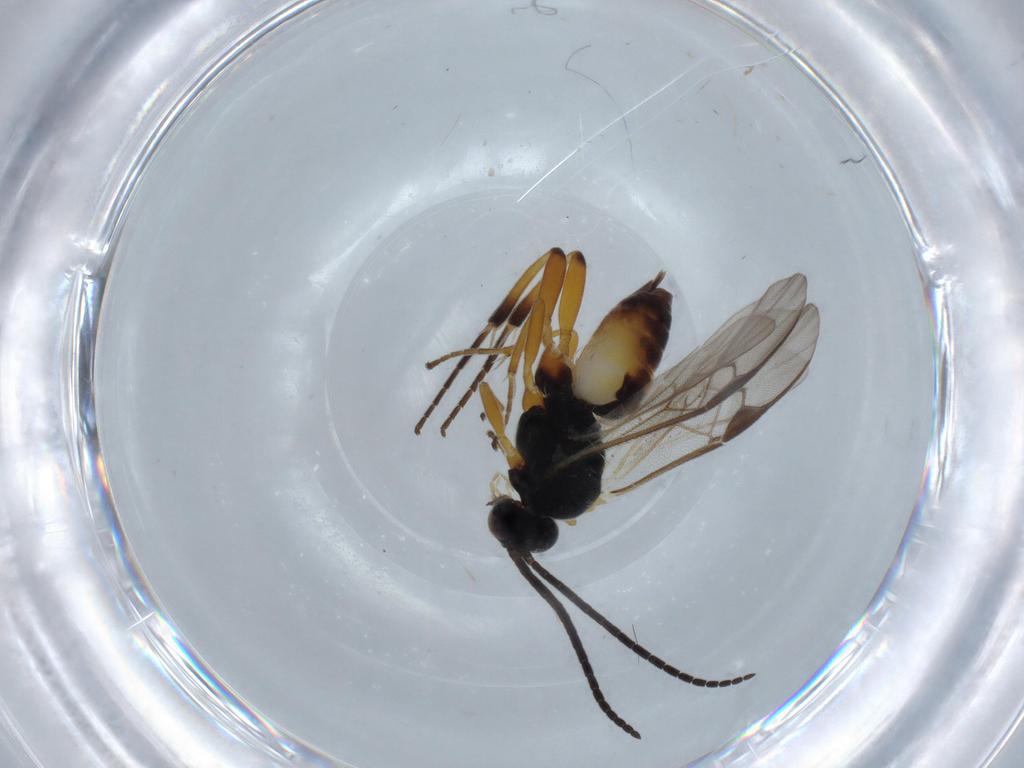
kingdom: Animalia
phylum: Arthropoda
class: Insecta
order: Hymenoptera
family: Braconidae
